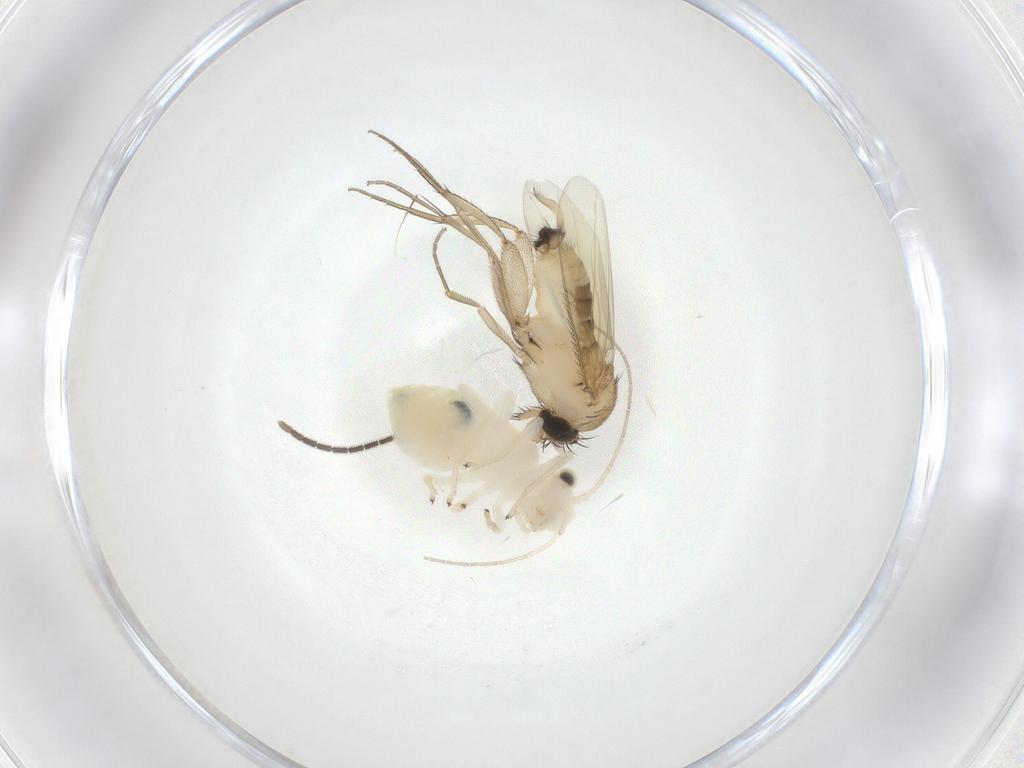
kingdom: Animalia
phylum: Arthropoda
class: Insecta
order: Diptera
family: Phoridae
